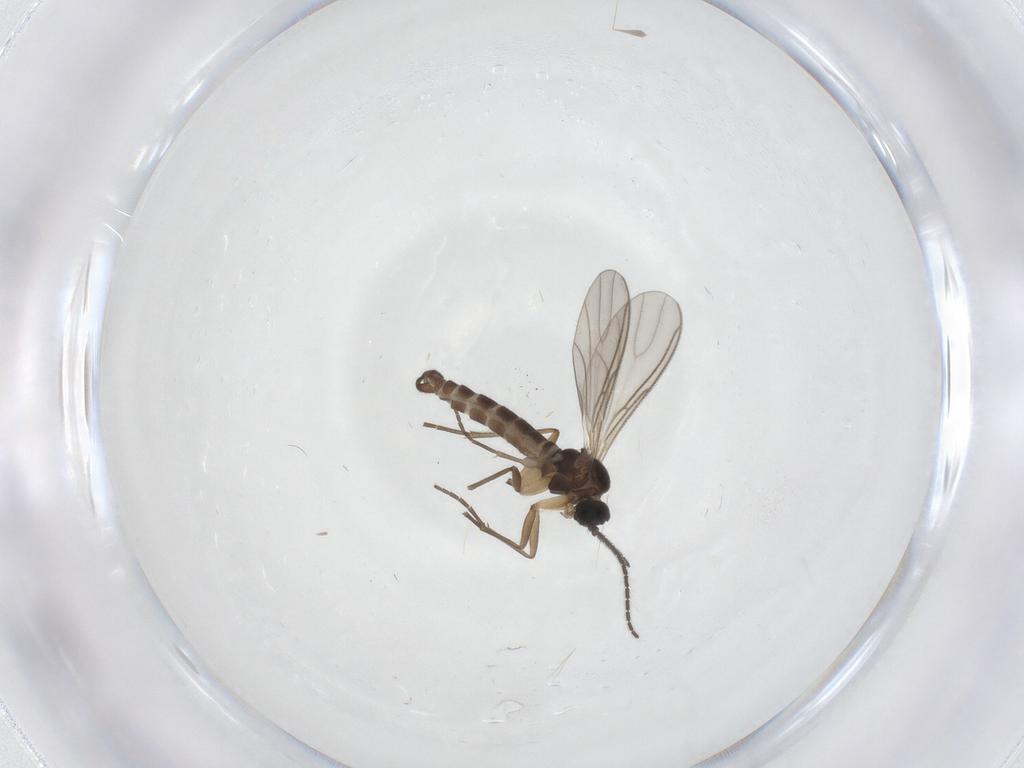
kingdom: Animalia
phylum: Arthropoda
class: Insecta
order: Diptera
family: Sciaridae
